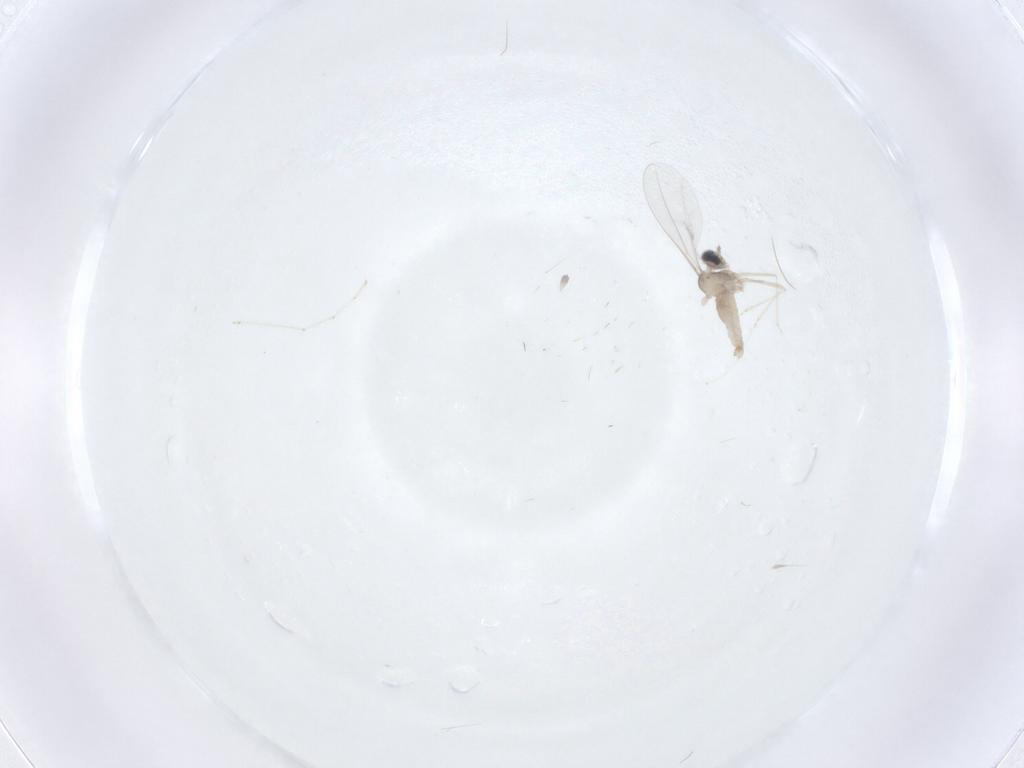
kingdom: Animalia
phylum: Arthropoda
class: Insecta
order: Diptera
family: Cecidomyiidae
